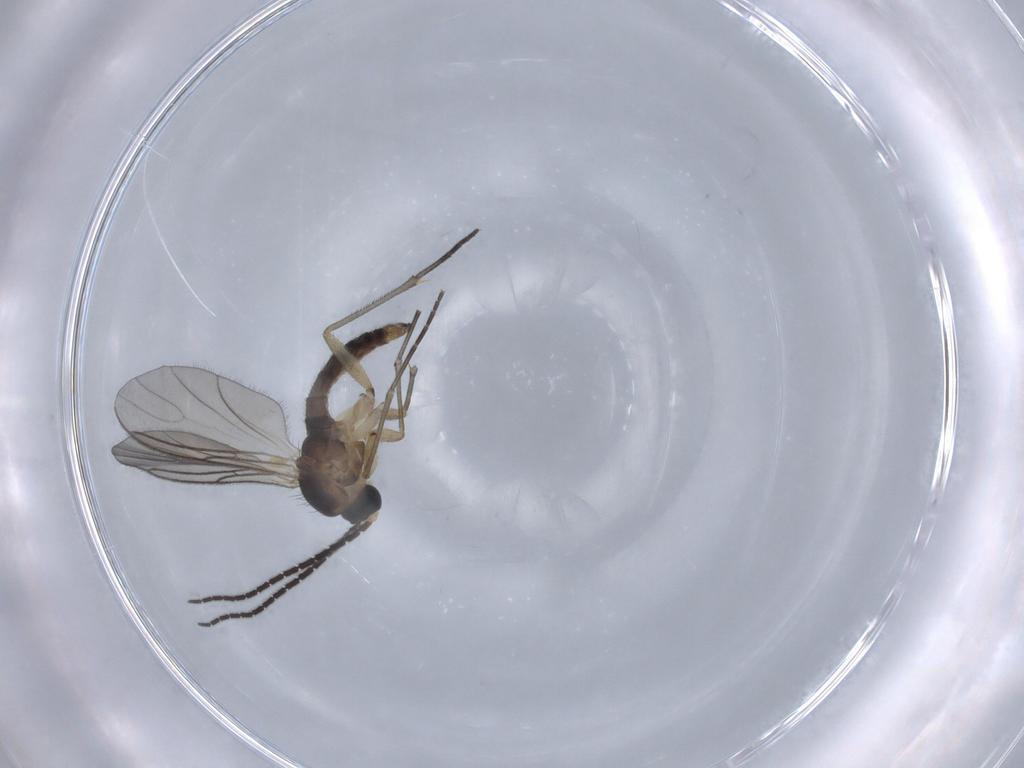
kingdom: Animalia
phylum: Arthropoda
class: Insecta
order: Diptera
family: Sciaridae
